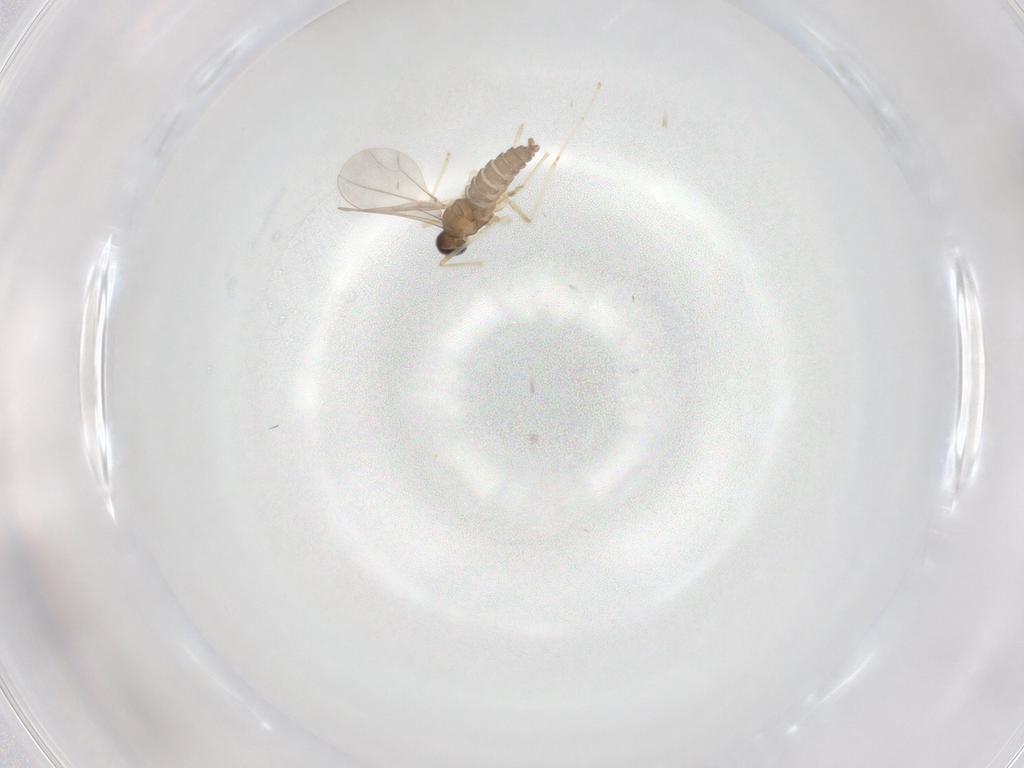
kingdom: Animalia
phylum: Arthropoda
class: Insecta
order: Diptera
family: Cecidomyiidae
